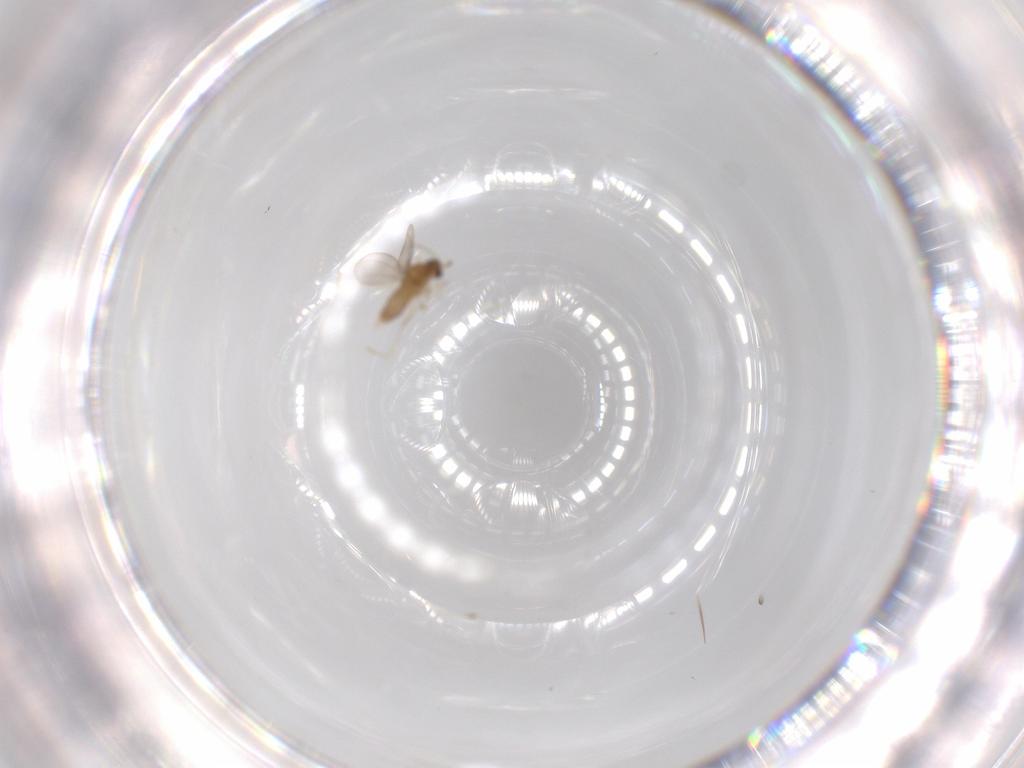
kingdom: Animalia
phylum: Arthropoda
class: Insecta
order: Diptera
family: Cecidomyiidae
